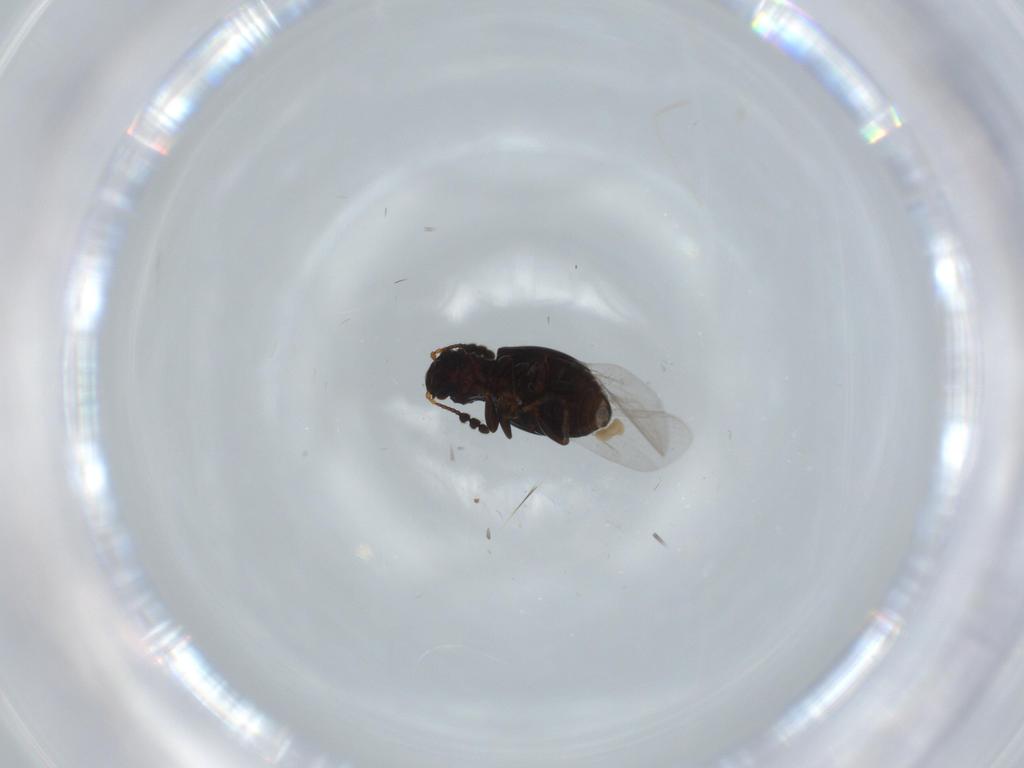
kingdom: Animalia
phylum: Arthropoda
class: Insecta
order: Coleoptera
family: Salpingidae
